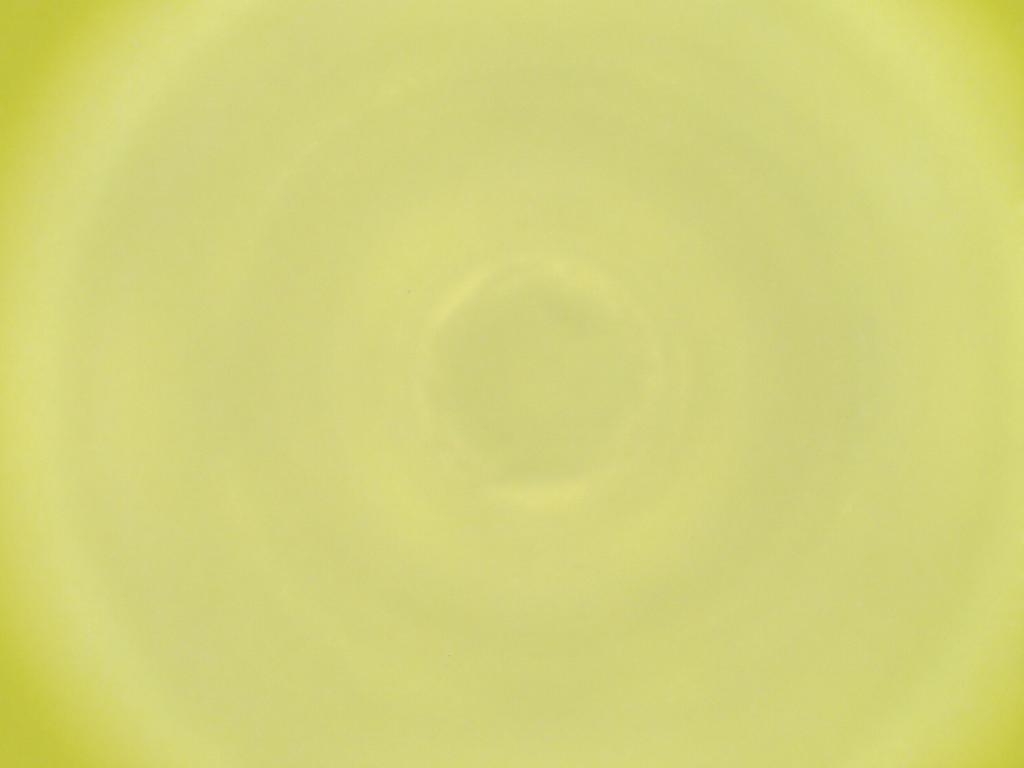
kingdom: Animalia
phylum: Arthropoda
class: Insecta
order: Diptera
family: Cecidomyiidae
